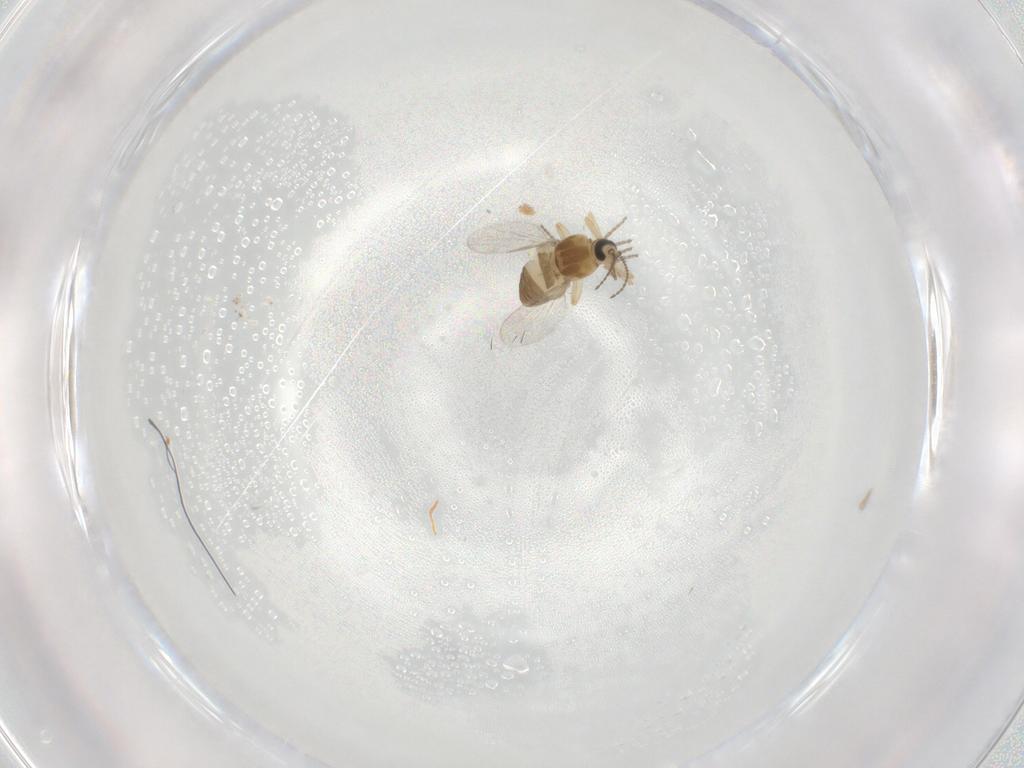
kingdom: Animalia
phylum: Arthropoda
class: Insecta
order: Diptera
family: Ceratopogonidae
